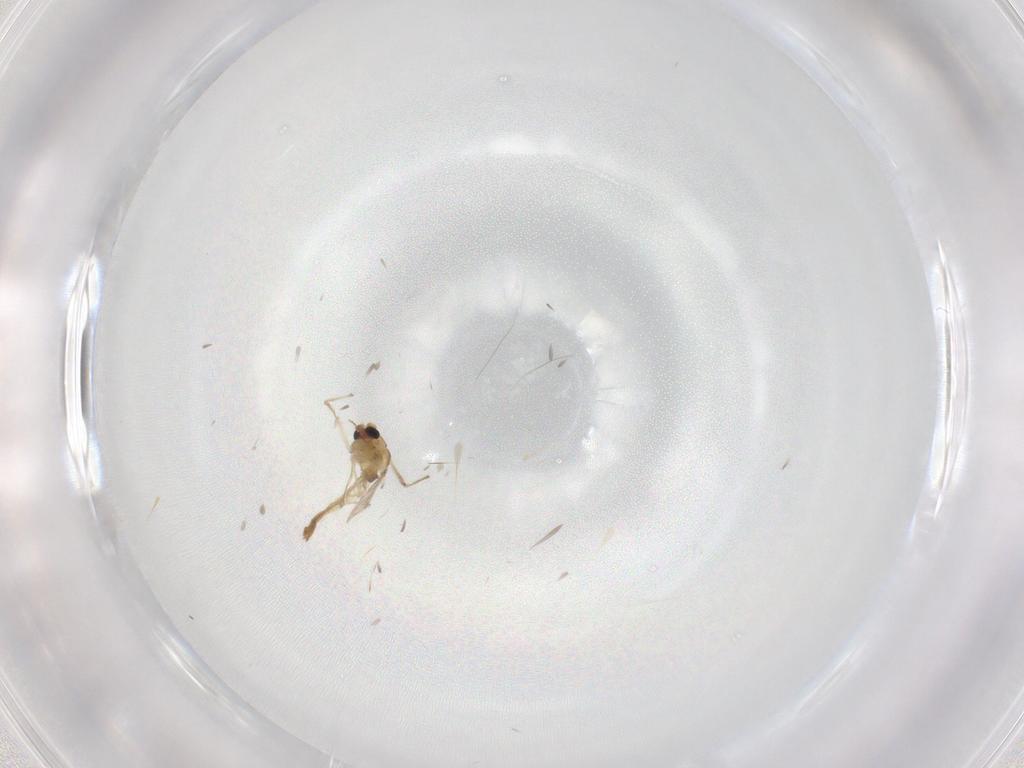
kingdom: Animalia
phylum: Arthropoda
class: Insecta
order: Diptera
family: Chironomidae
